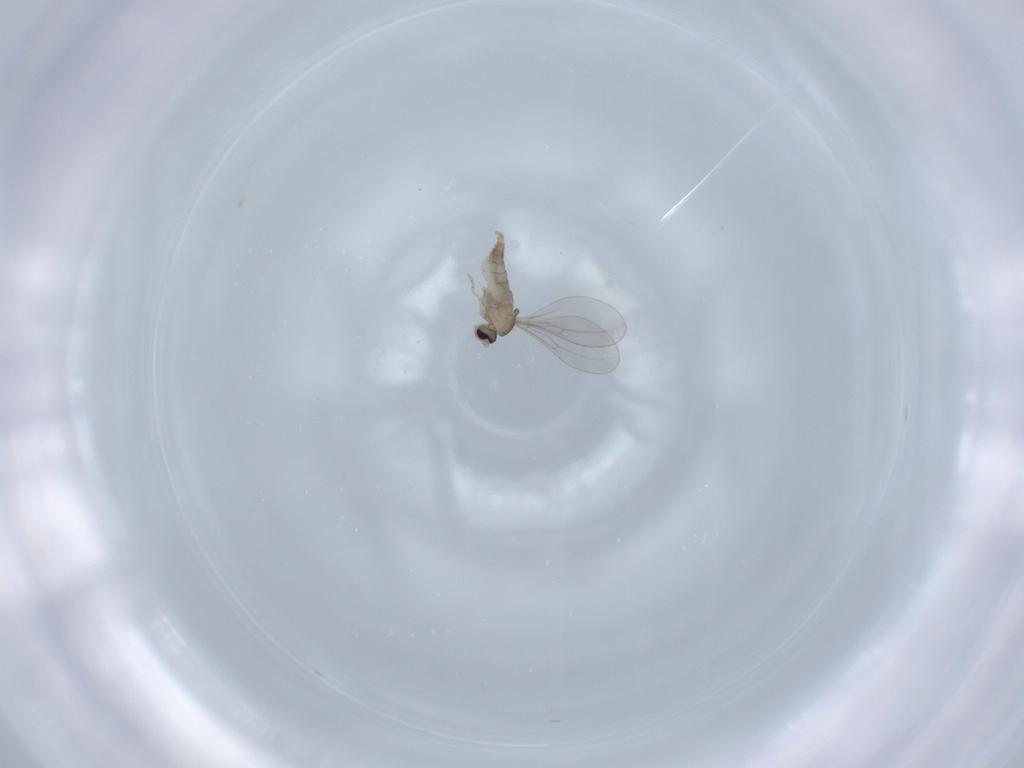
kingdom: Animalia
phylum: Arthropoda
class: Insecta
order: Diptera
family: Cecidomyiidae
